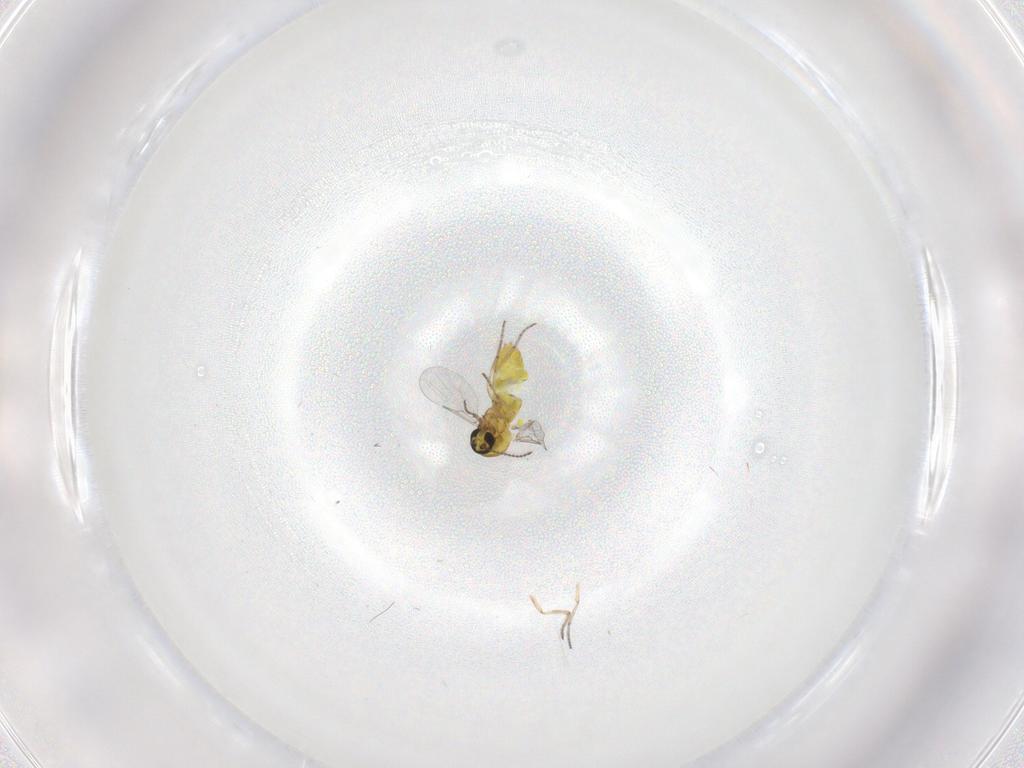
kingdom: Animalia
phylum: Arthropoda
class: Insecta
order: Diptera
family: Ceratopogonidae
